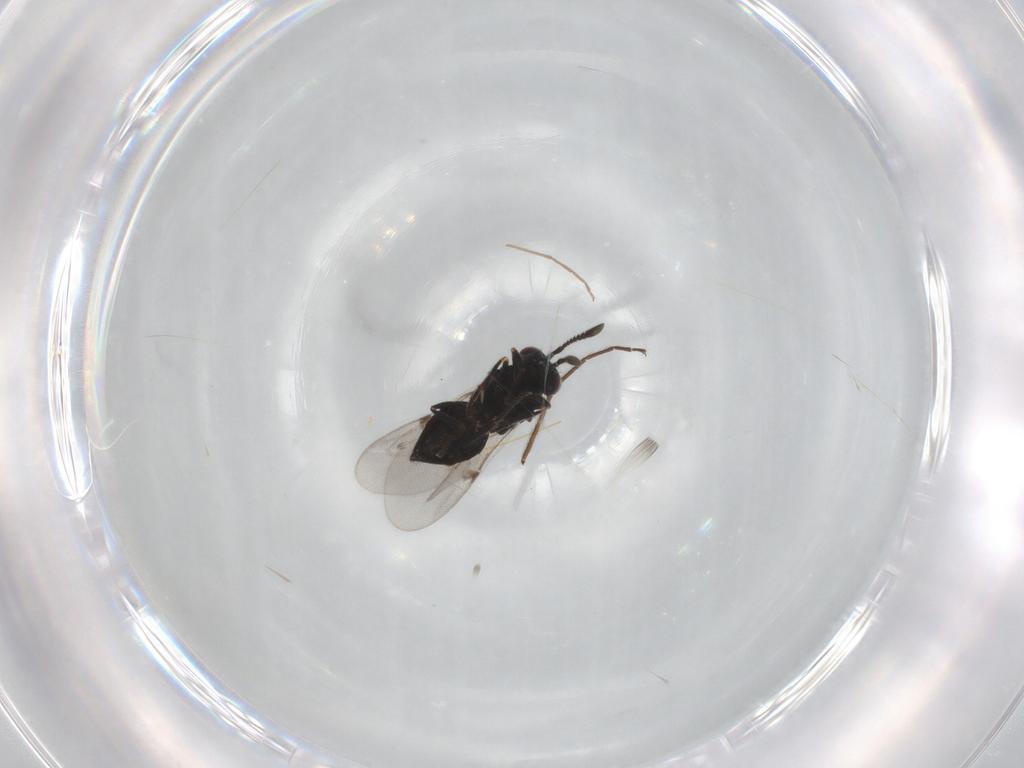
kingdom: Animalia
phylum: Arthropoda
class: Insecta
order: Hymenoptera
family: Encyrtidae
